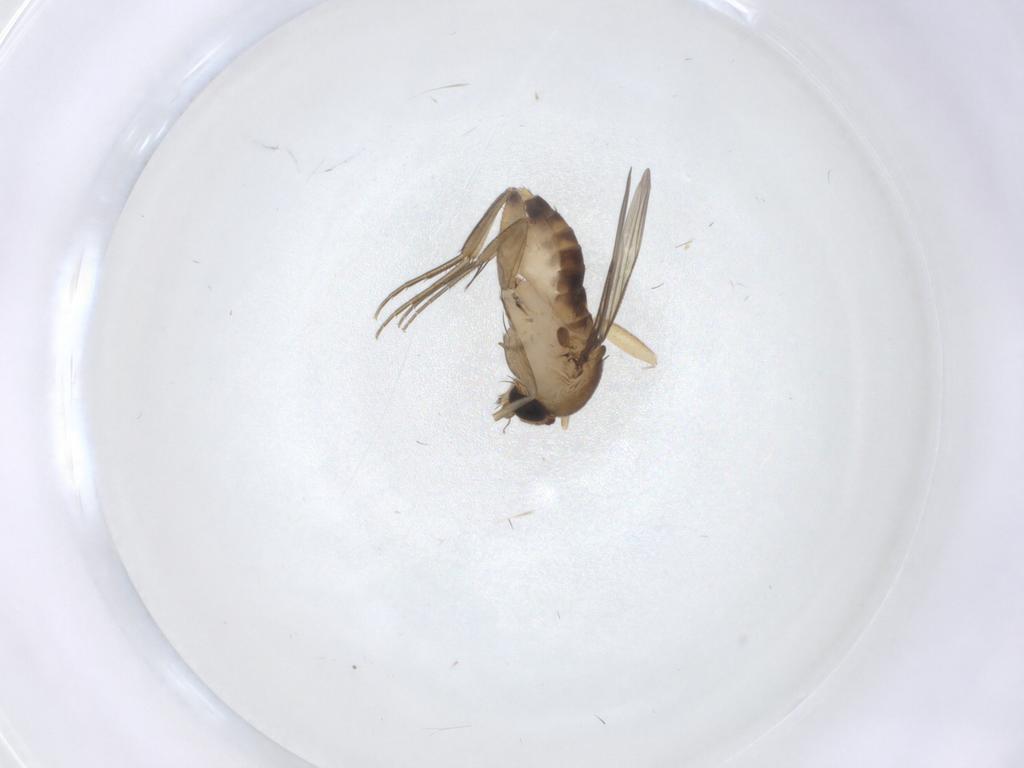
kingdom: Animalia
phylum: Arthropoda
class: Insecta
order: Diptera
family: Phoridae
